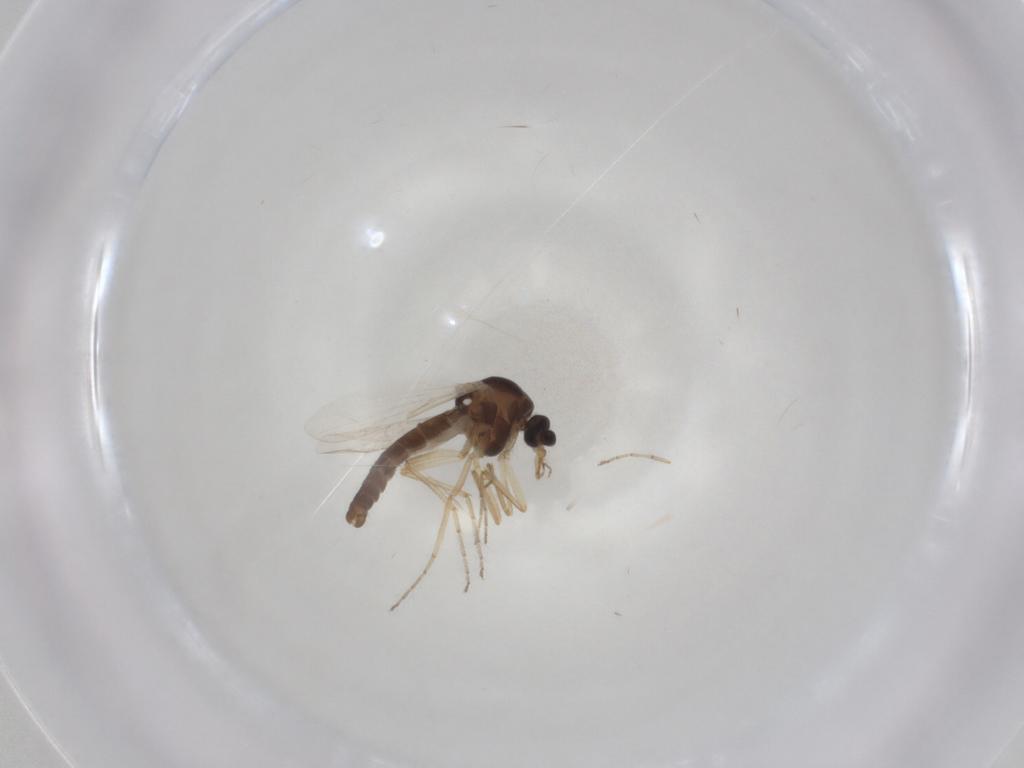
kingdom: Animalia
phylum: Arthropoda
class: Insecta
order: Diptera
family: Ceratopogonidae
